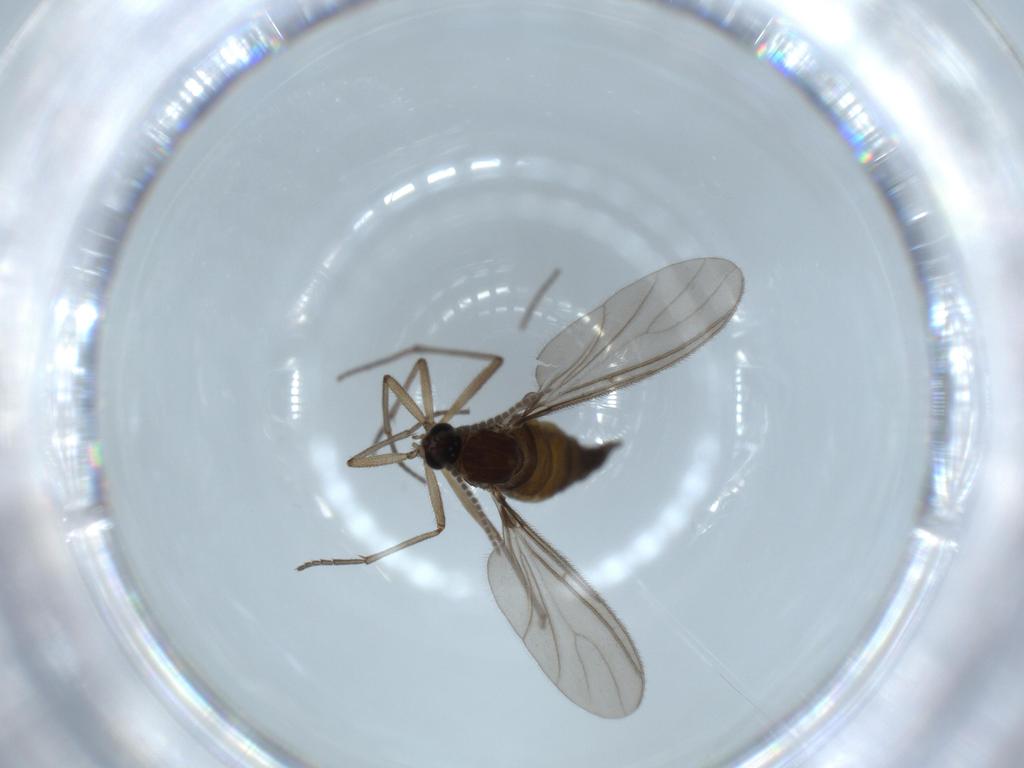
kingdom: Animalia
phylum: Arthropoda
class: Insecta
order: Diptera
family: Sciaridae
